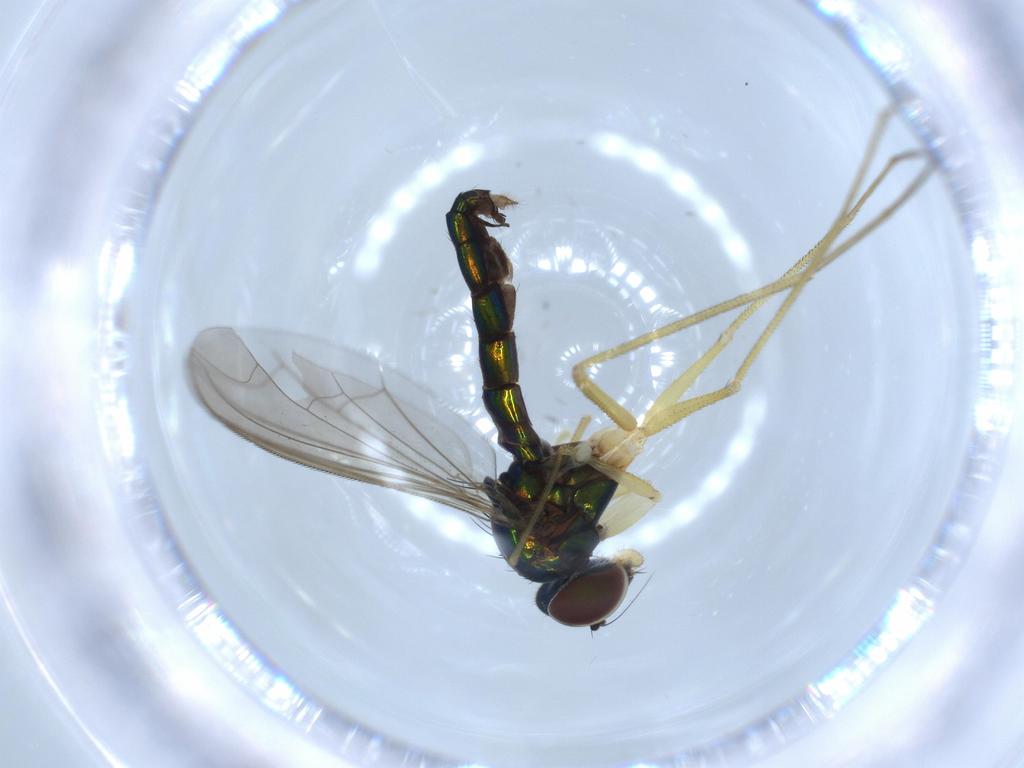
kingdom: Animalia
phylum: Arthropoda
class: Insecta
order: Diptera
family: Dolichopodidae
